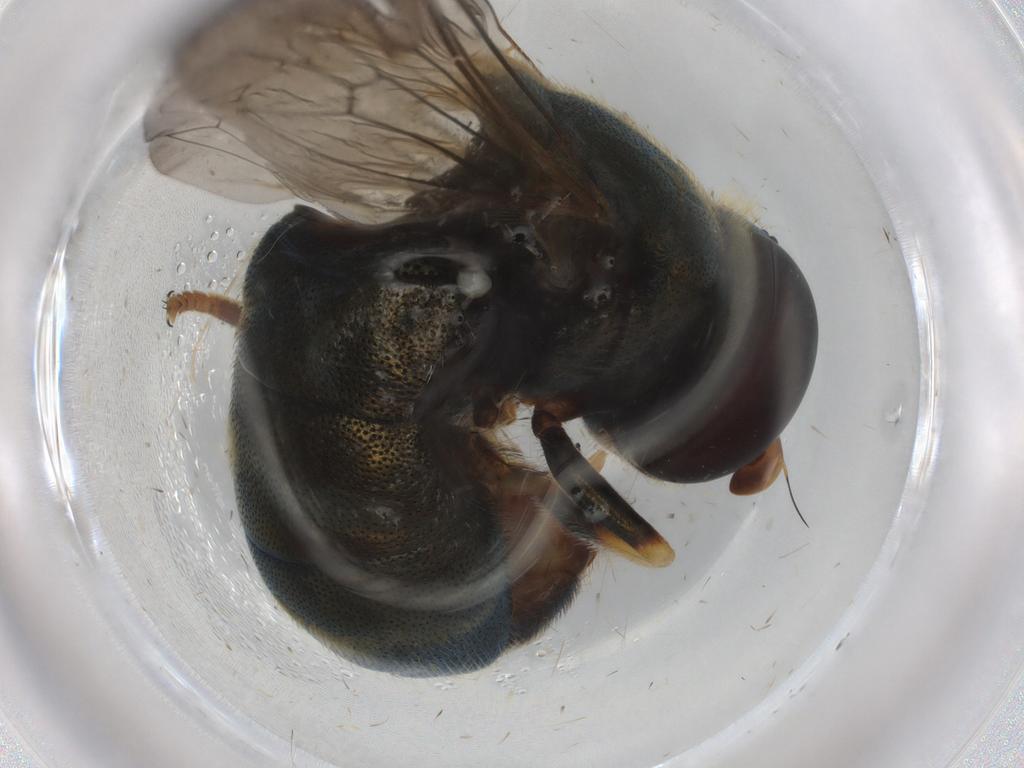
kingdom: Animalia
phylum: Arthropoda
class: Insecta
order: Diptera
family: Syrphidae
